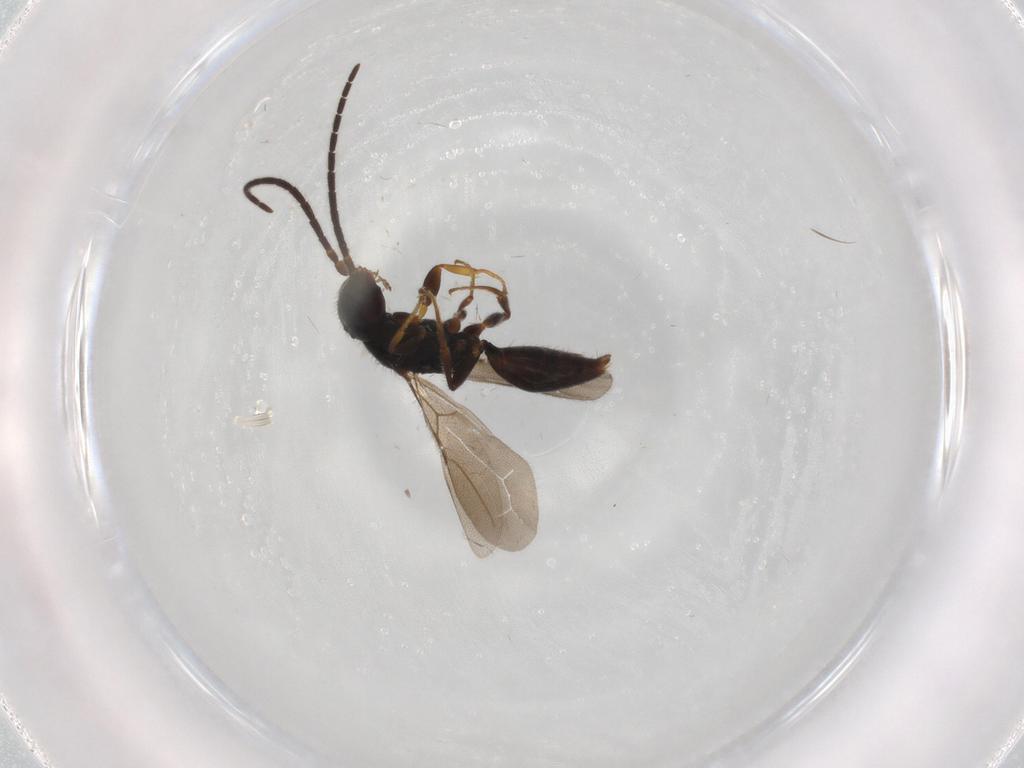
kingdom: Animalia
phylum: Arthropoda
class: Insecta
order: Hymenoptera
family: Bethylidae
